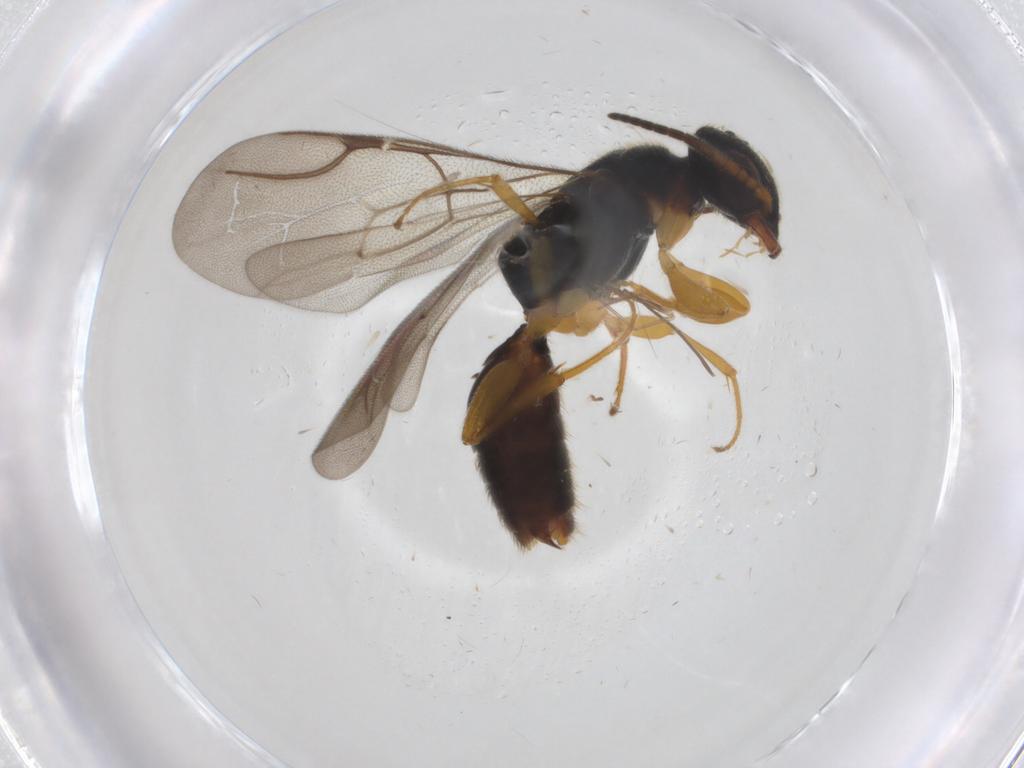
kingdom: Animalia
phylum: Arthropoda
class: Insecta
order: Hymenoptera
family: Bethylidae
